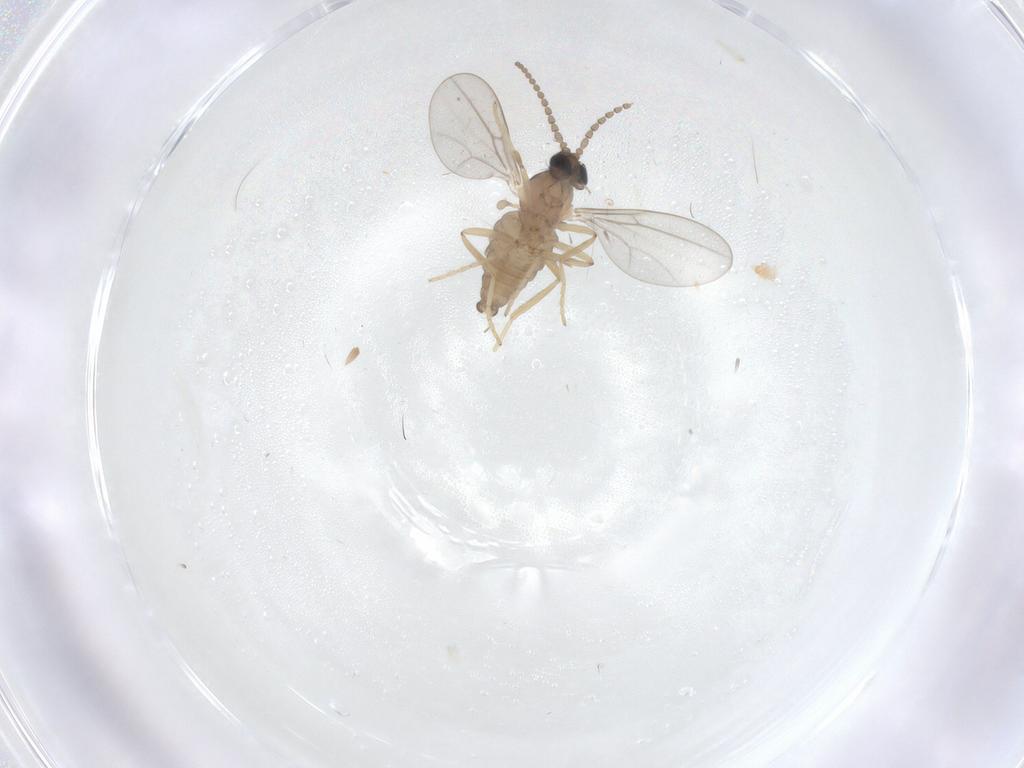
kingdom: Animalia
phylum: Arthropoda
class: Insecta
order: Diptera
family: Cecidomyiidae
